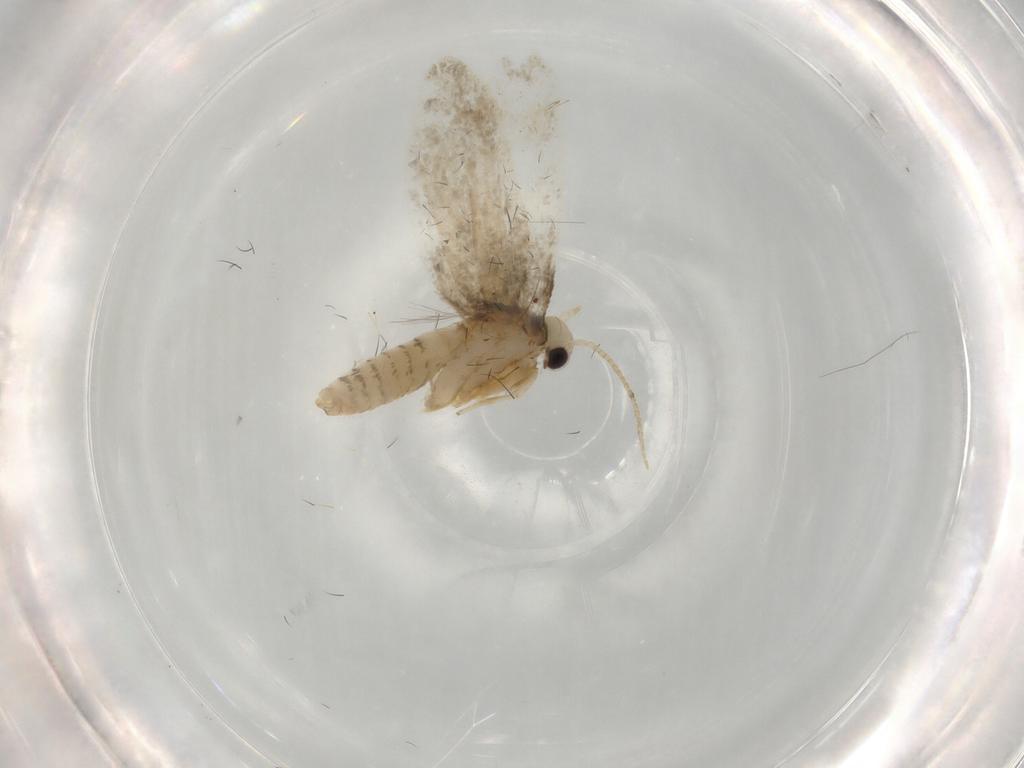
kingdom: Animalia
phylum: Arthropoda
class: Insecta
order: Lepidoptera
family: Psychidae
